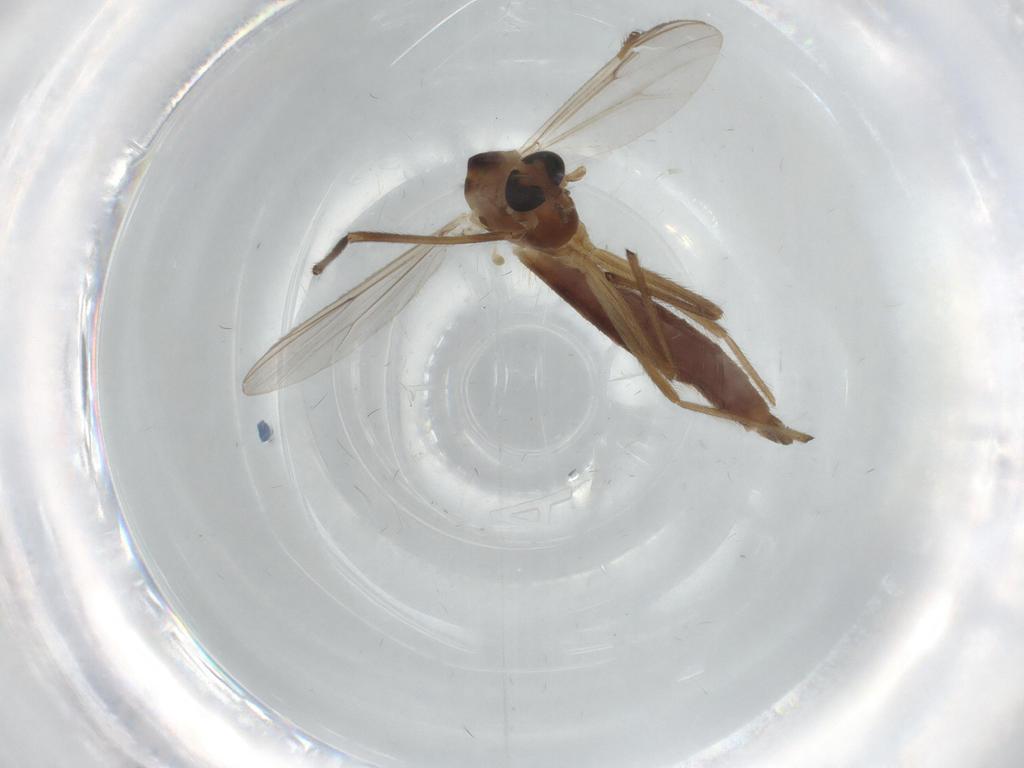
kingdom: Animalia
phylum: Arthropoda
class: Insecta
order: Diptera
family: Chironomidae
